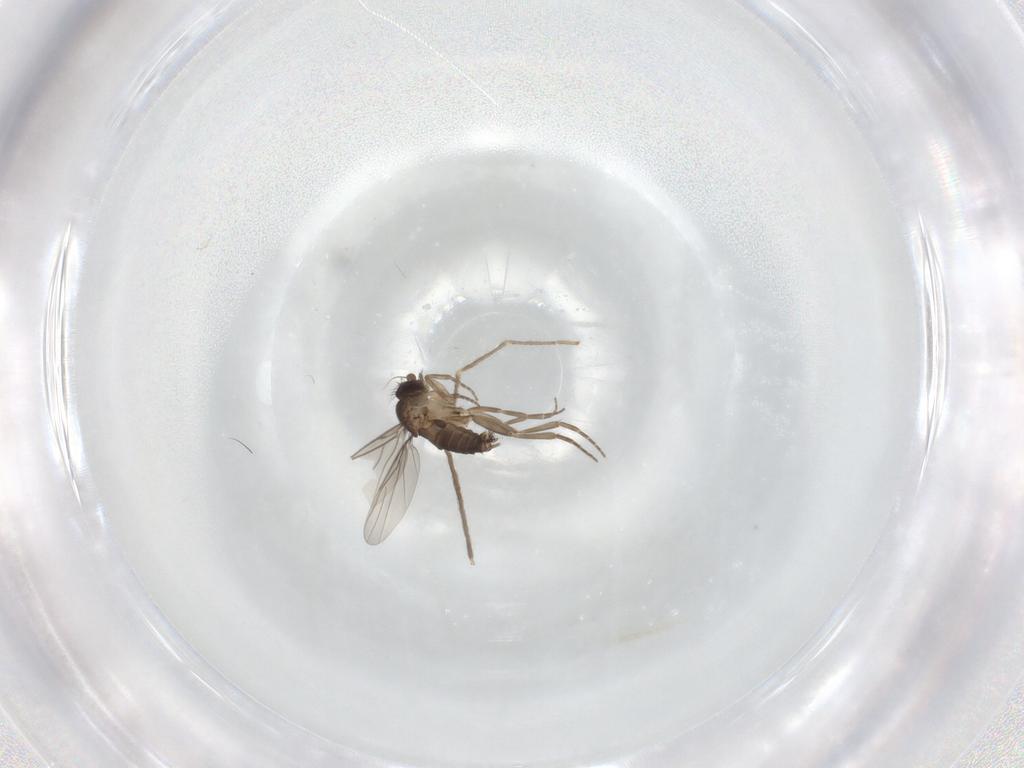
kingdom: Animalia
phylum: Arthropoda
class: Insecta
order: Diptera
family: Chironomidae
